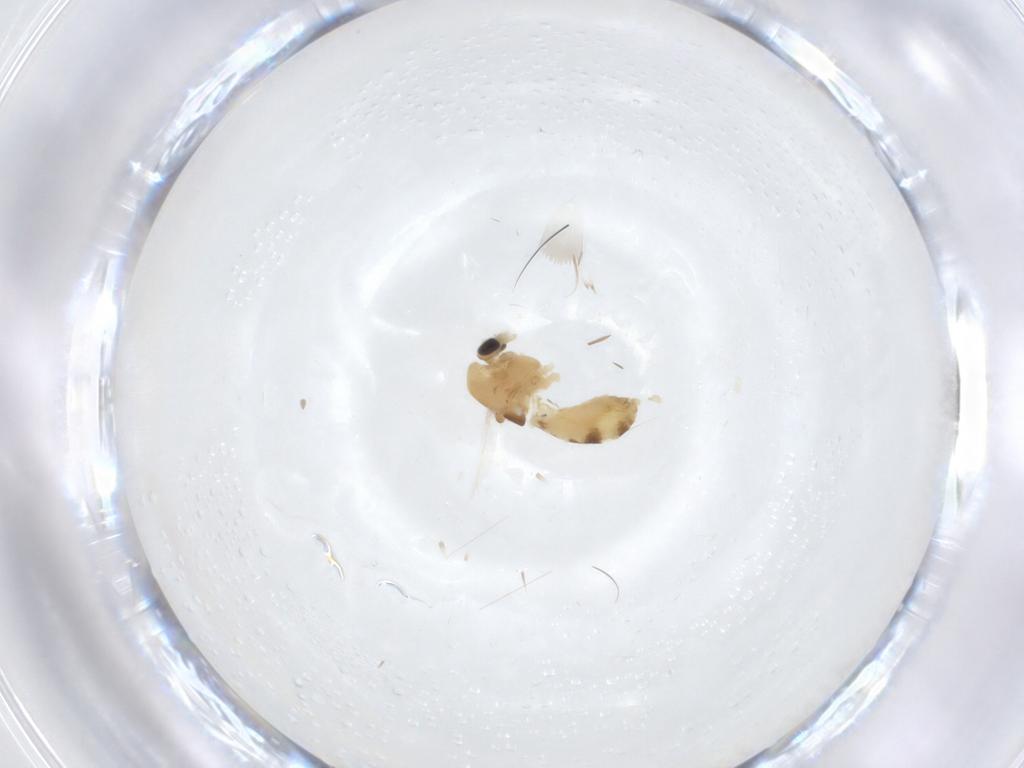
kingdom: Animalia
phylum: Arthropoda
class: Insecta
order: Diptera
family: Chironomidae
